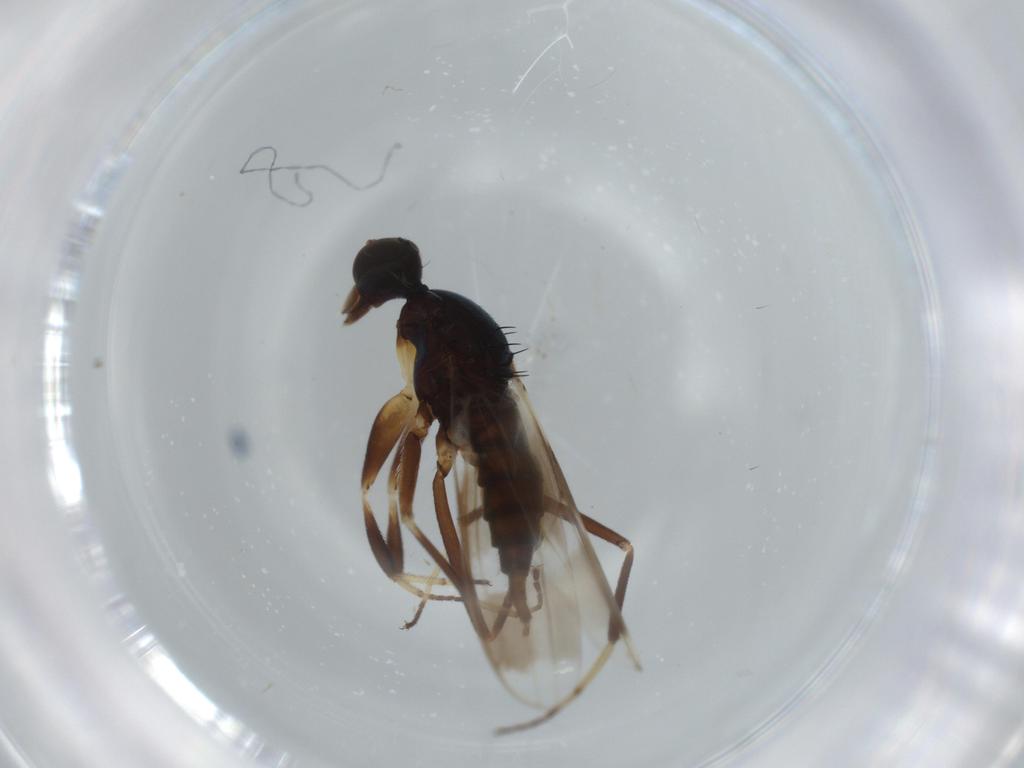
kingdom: Animalia
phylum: Arthropoda
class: Insecta
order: Diptera
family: Hybotidae
